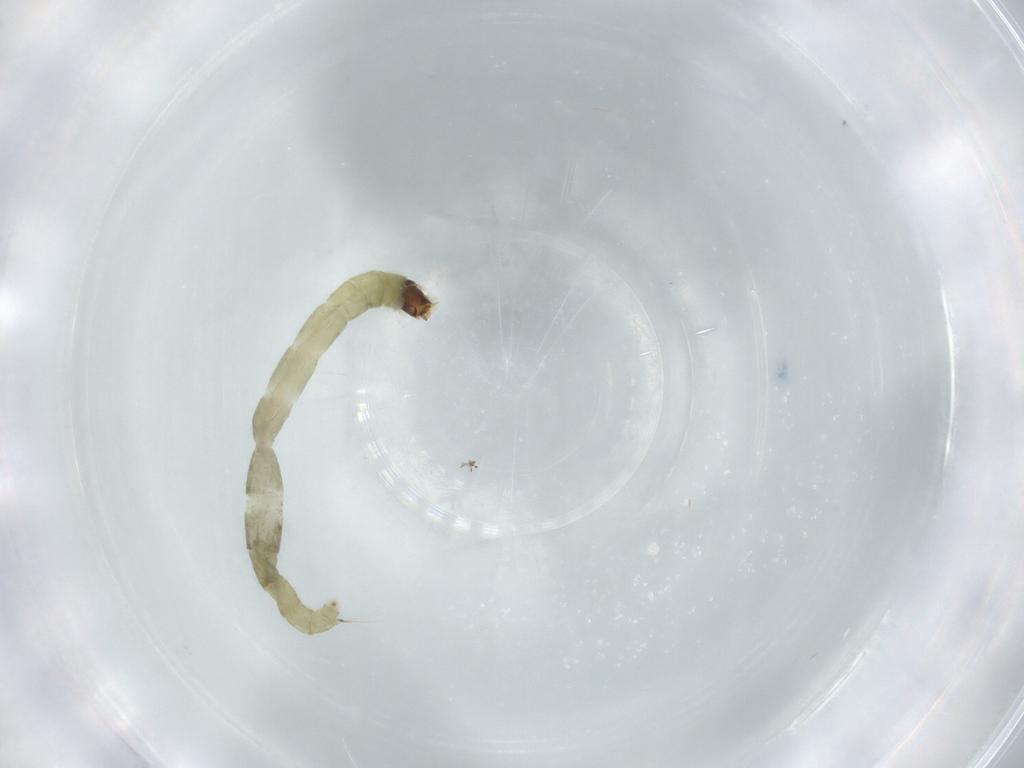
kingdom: Animalia
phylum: Arthropoda
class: Insecta
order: Diptera
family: Chironomidae
